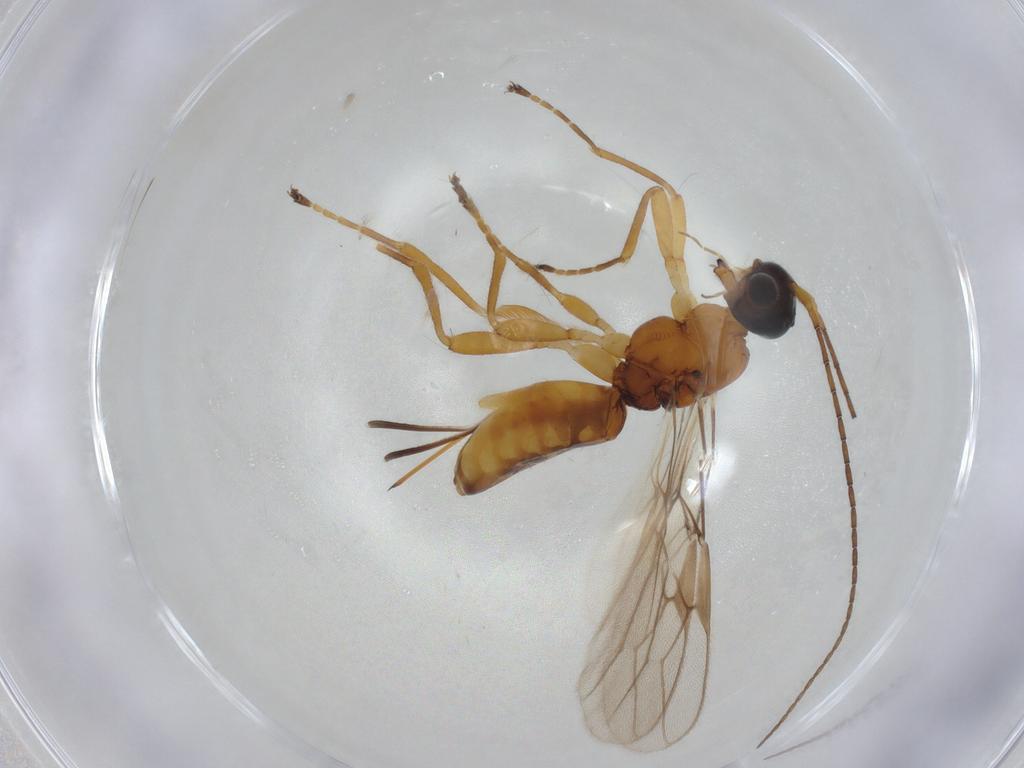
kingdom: Animalia
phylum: Arthropoda
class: Insecta
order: Hymenoptera
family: Braconidae
